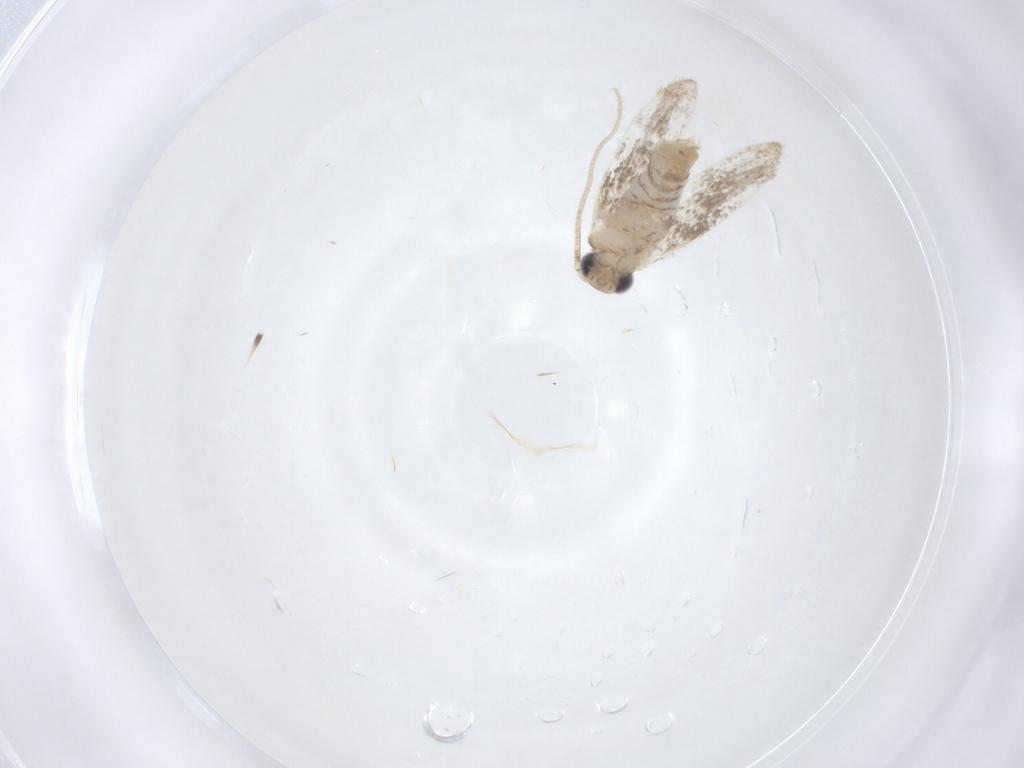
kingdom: Animalia
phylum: Arthropoda
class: Insecta
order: Lepidoptera
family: Dryadaulidae
